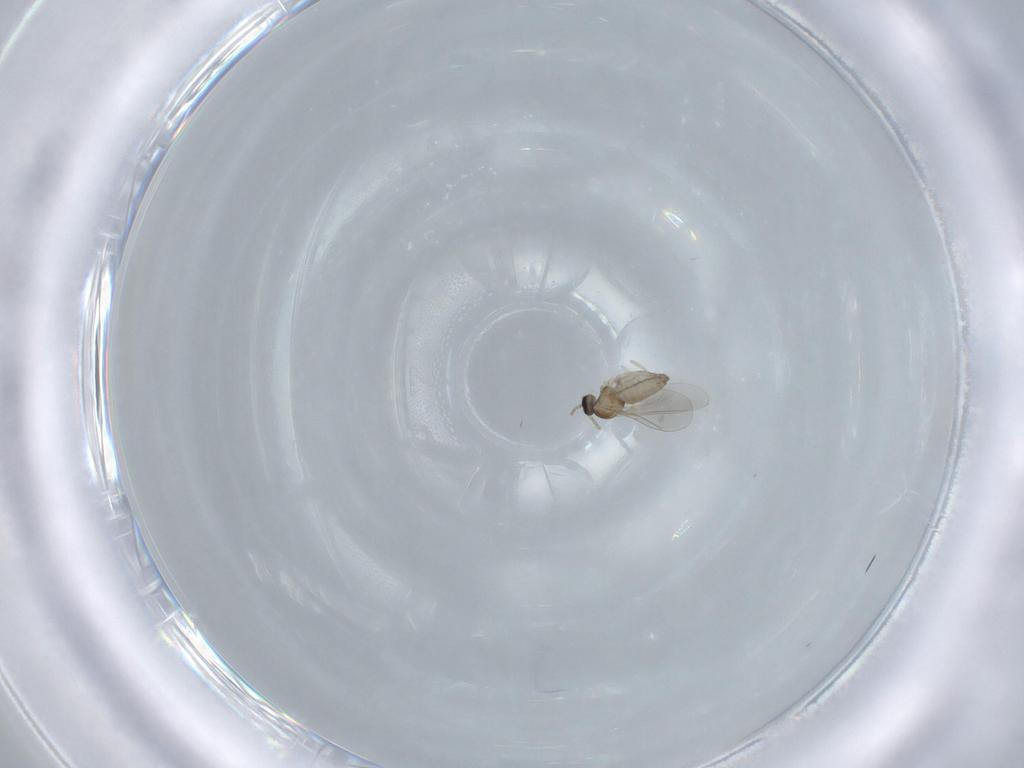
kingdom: Animalia
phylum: Arthropoda
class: Insecta
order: Diptera
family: Cecidomyiidae
